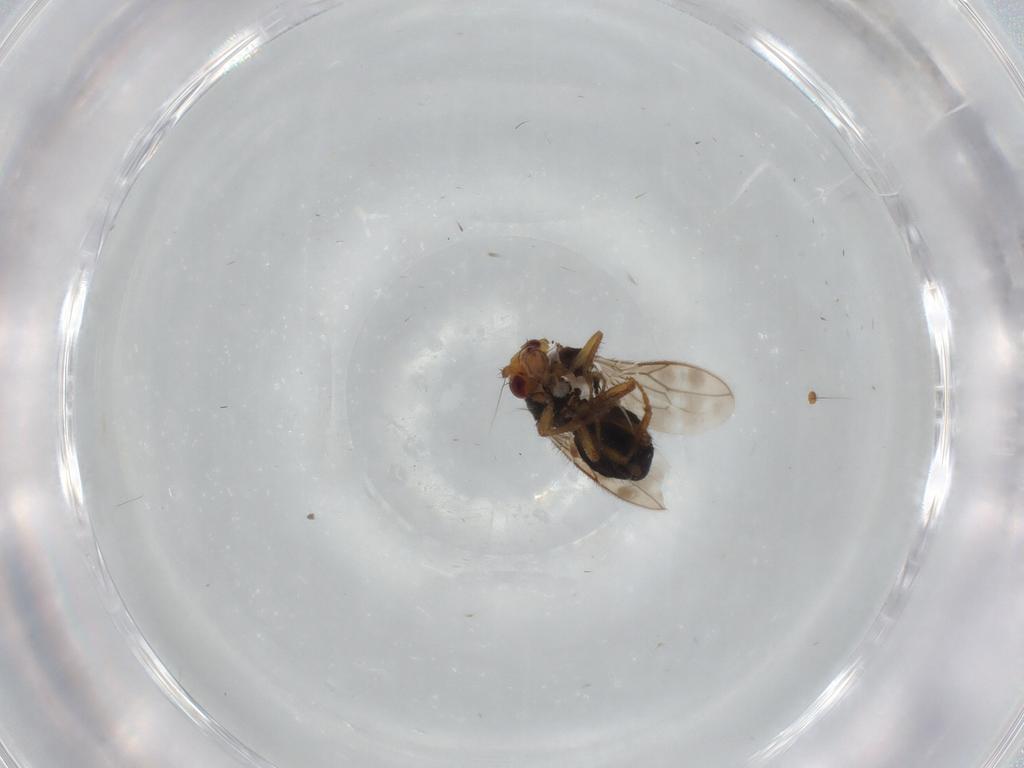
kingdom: Animalia
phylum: Arthropoda
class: Insecta
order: Diptera
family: Sphaeroceridae
